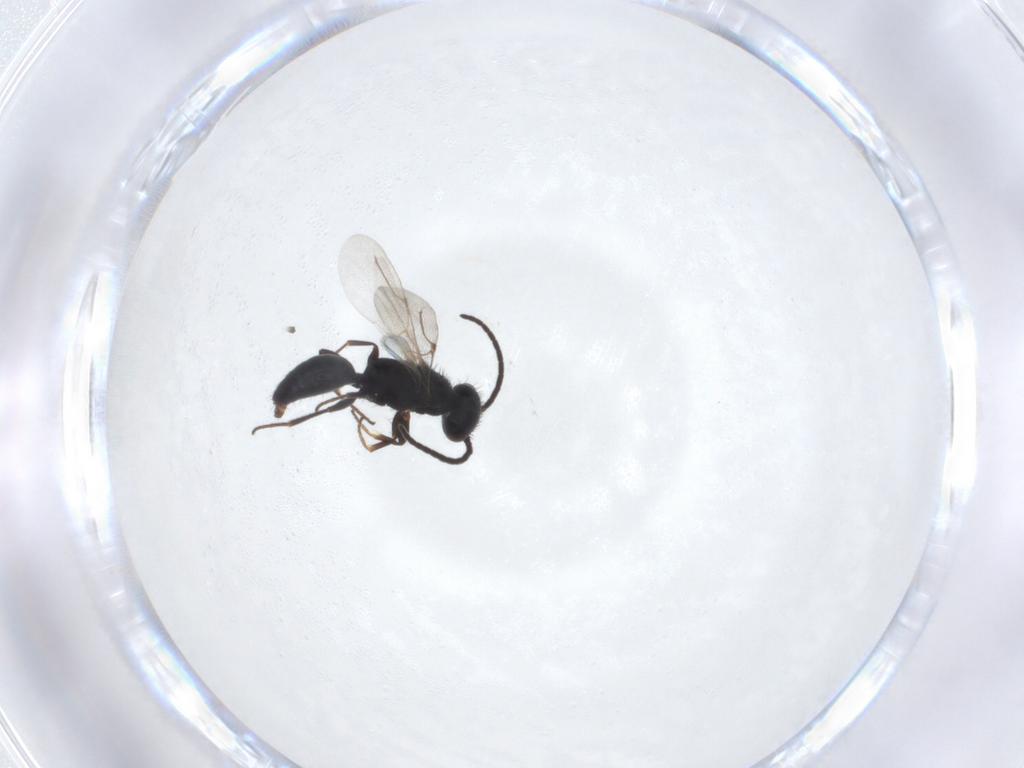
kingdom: Animalia
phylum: Arthropoda
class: Insecta
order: Hymenoptera
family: Bethylidae
